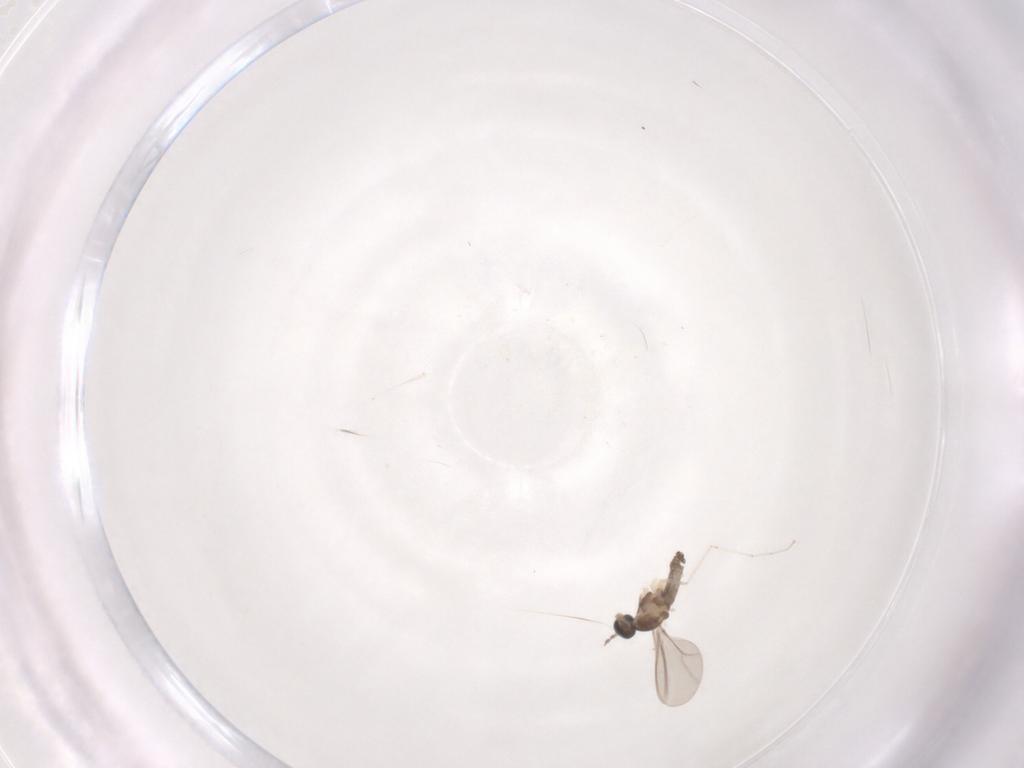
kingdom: Animalia
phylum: Arthropoda
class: Insecta
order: Diptera
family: Cecidomyiidae
